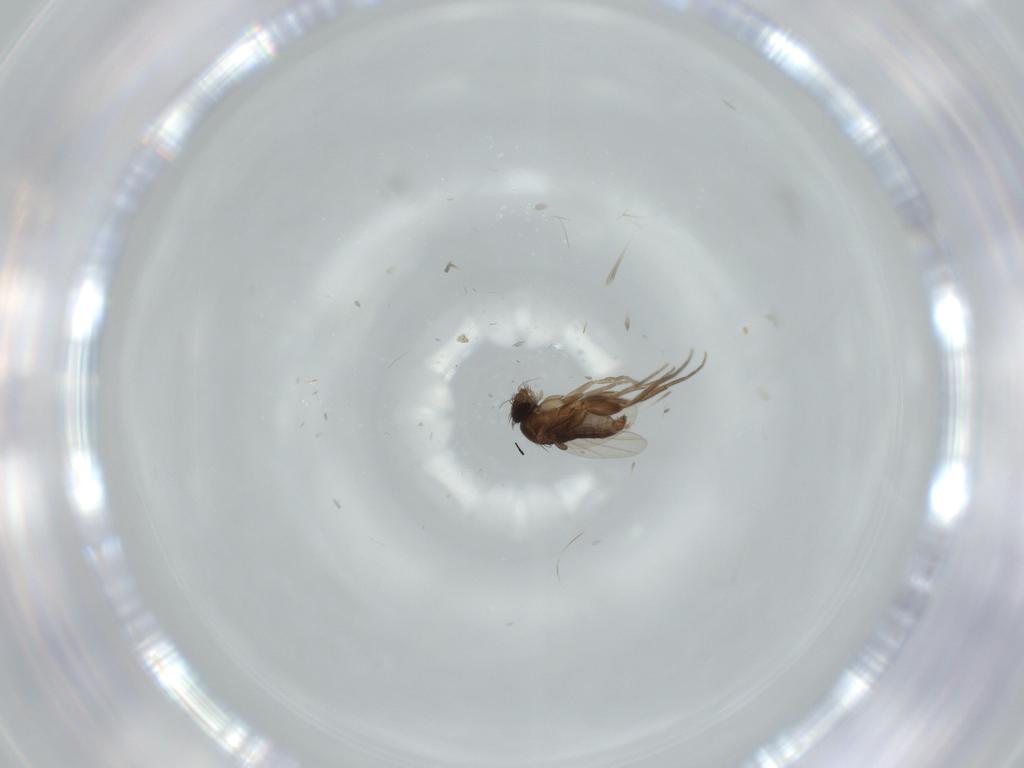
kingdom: Animalia
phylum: Arthropoda
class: Insecta
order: Diptera
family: Phoridae
